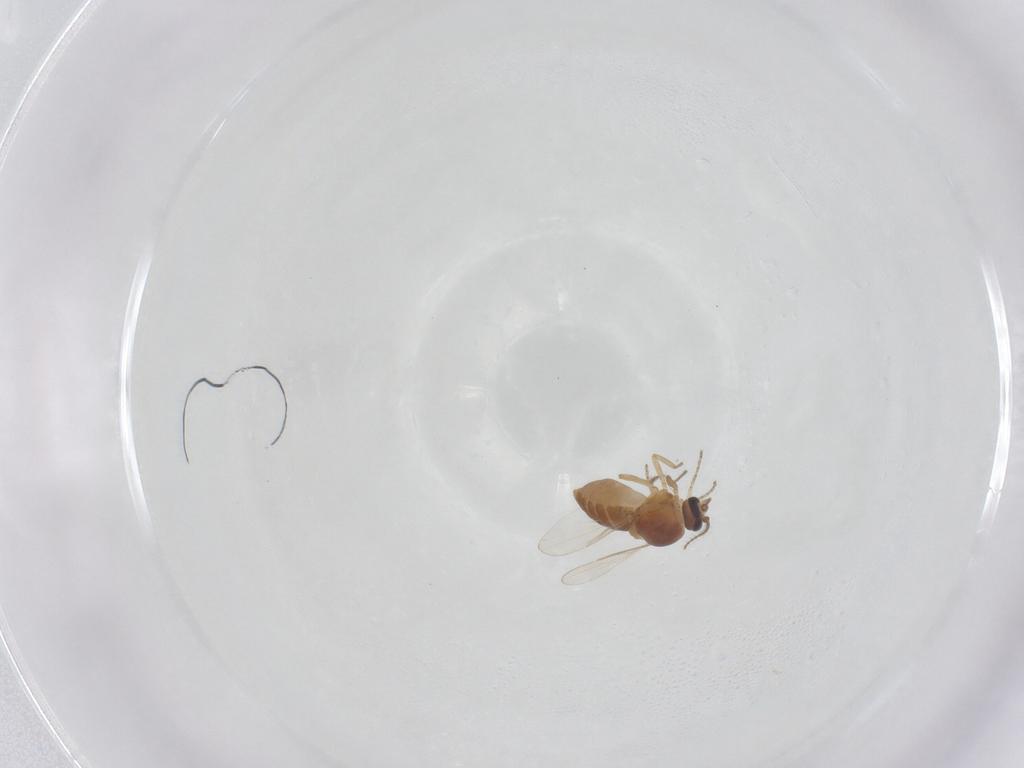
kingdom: Animalia
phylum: Arthropoda
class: Insecta
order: Diptera
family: Ceratopogonidae
